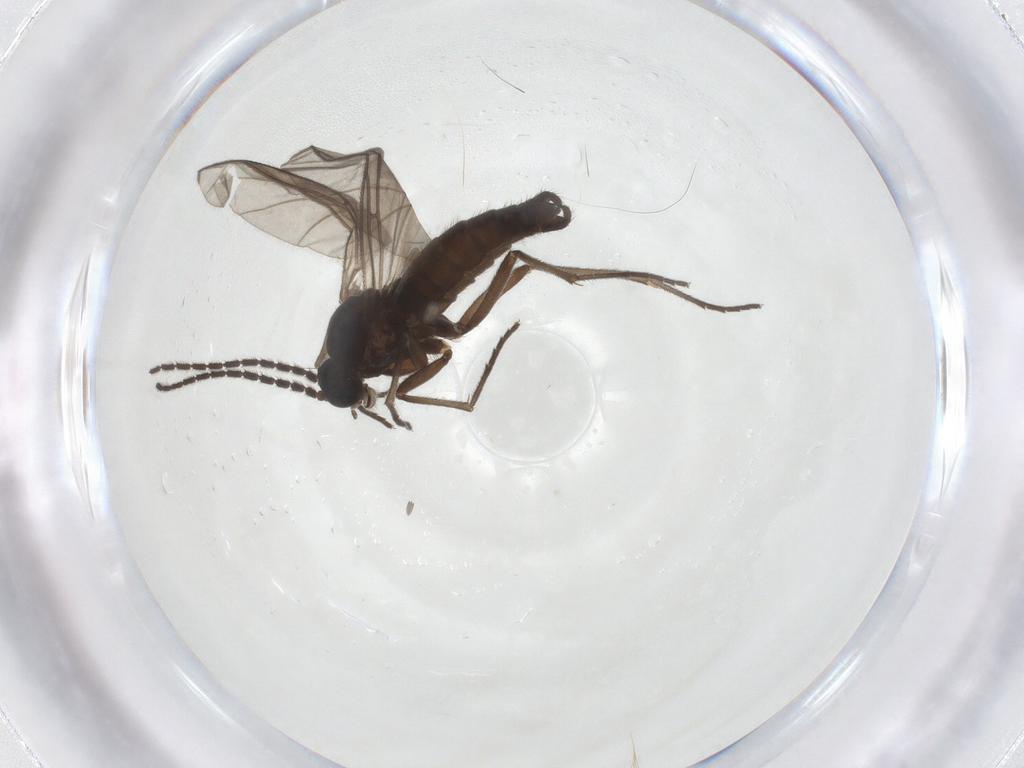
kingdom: Animalia
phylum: Arthropoda
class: Insecta
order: Diptera
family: Sciaridae
